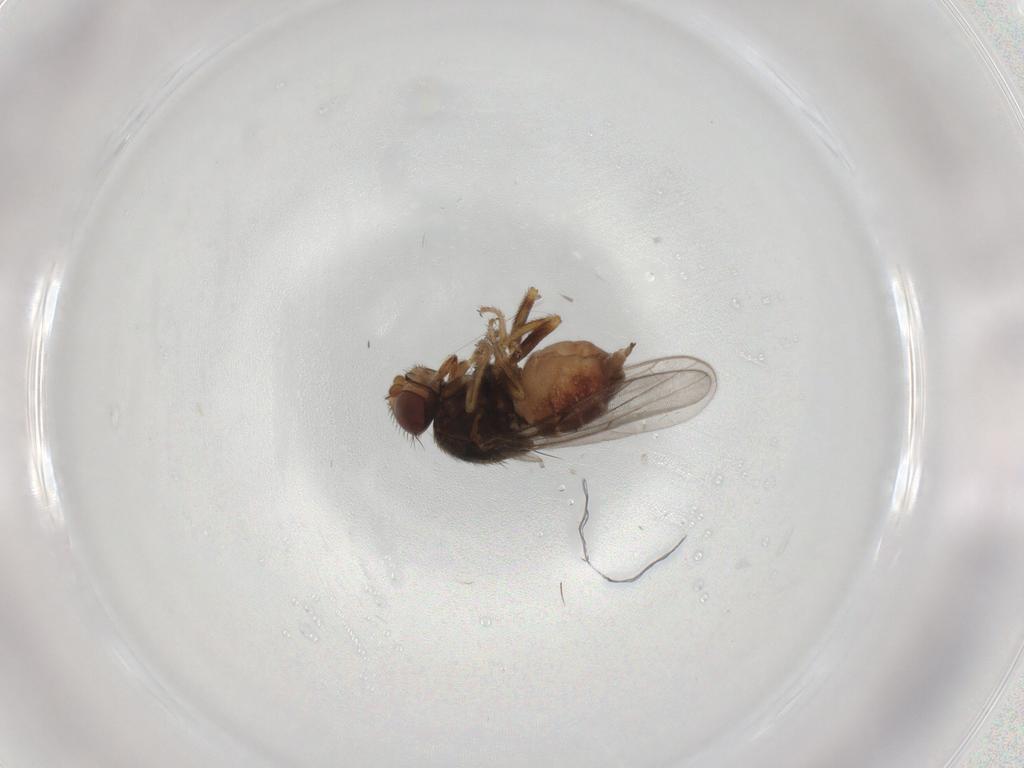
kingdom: Animalia
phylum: Arthropoda
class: Insecta
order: Diptera
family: Chloropidae
